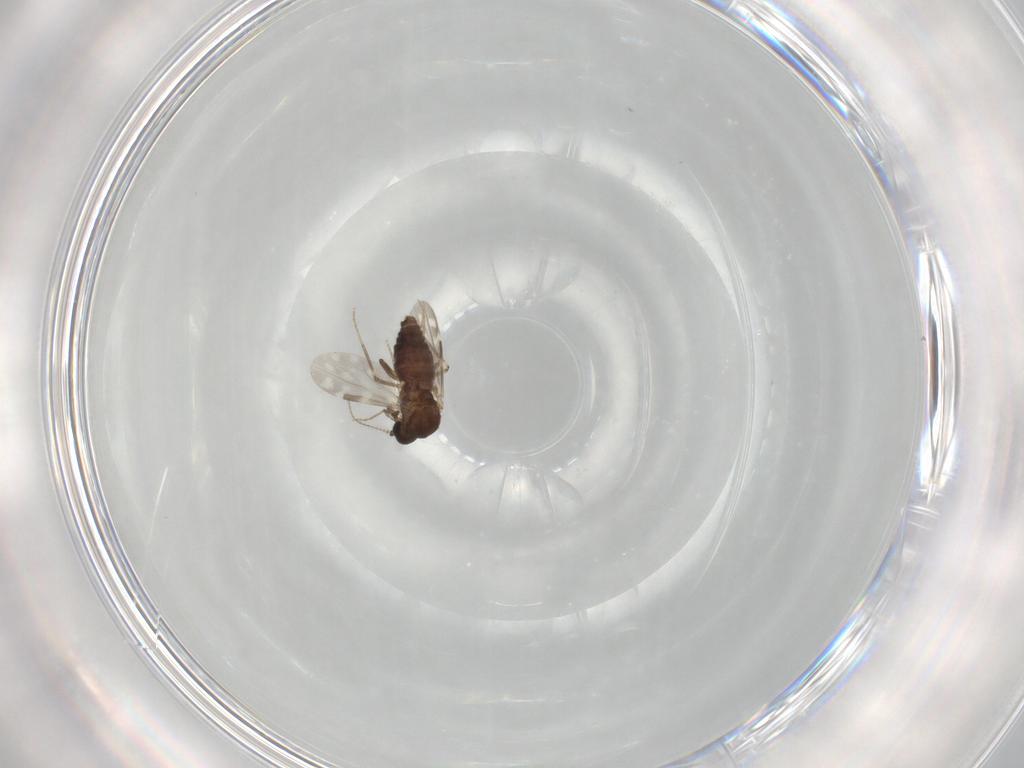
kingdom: Animalia
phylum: Arthropoda
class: Insecta
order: Diptera
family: Ceratopogonidae
